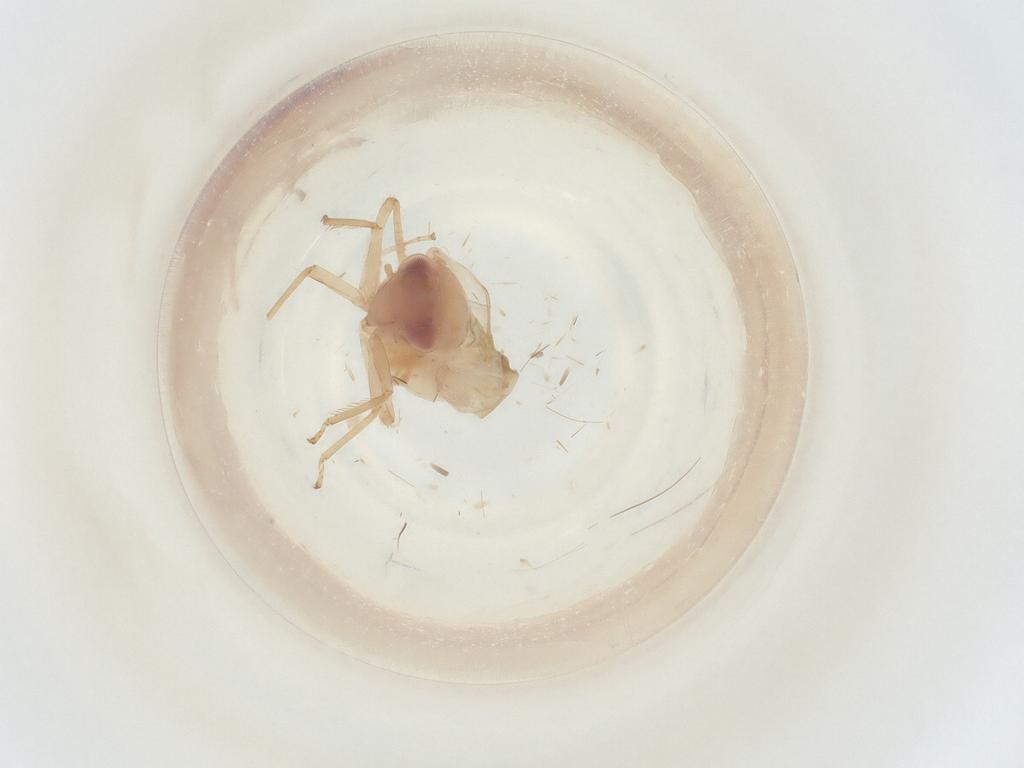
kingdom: Animalia
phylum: Arthropoda
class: Insecta
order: Hemiptera
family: Cicadellidae
